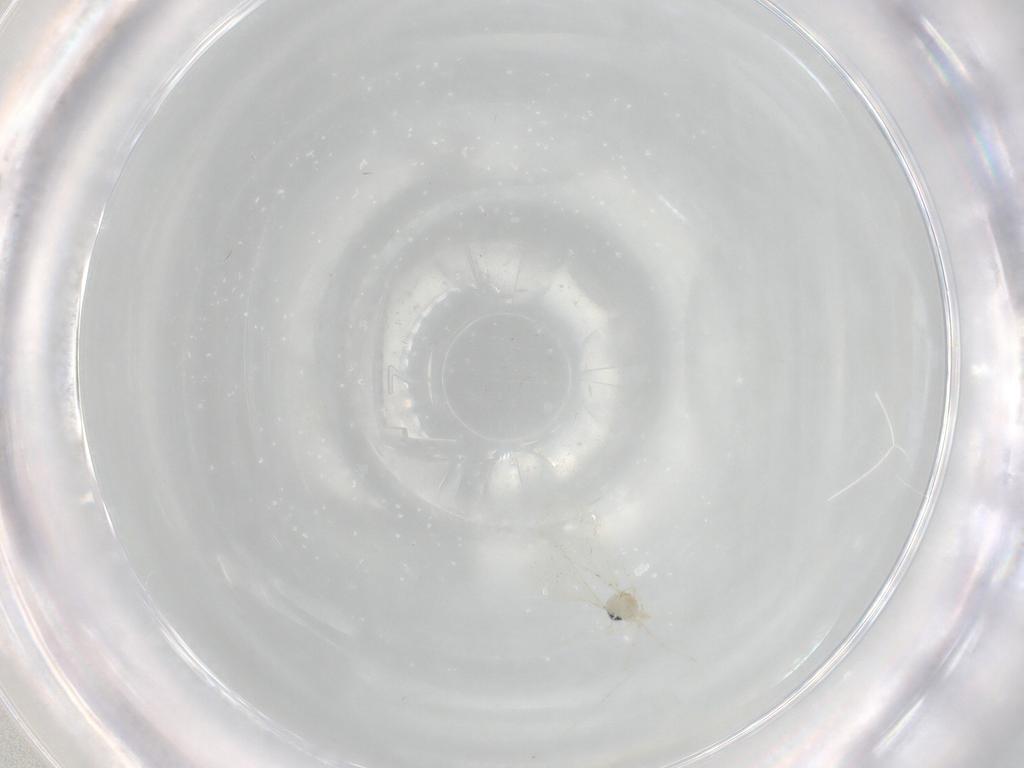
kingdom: Animalia
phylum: Arthropoda
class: Insecta
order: Diptera
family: Cecidomyiidae
